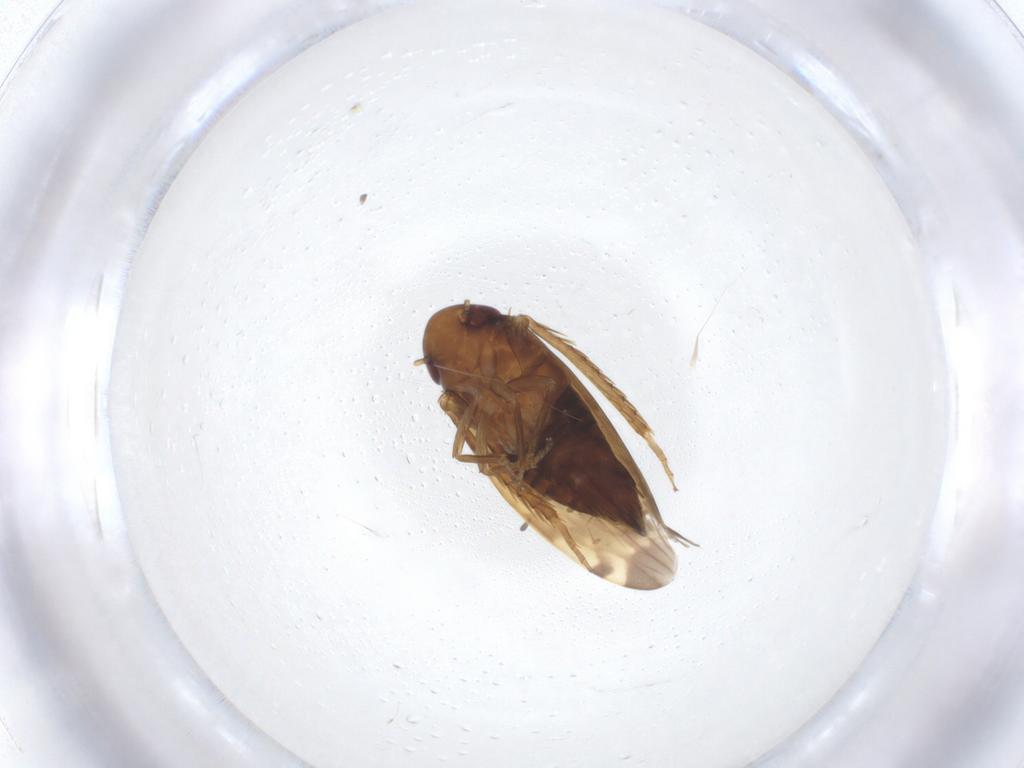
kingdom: Animalia
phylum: Arthropoda
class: Insecta
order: Hemiptera
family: Cicadellidae
